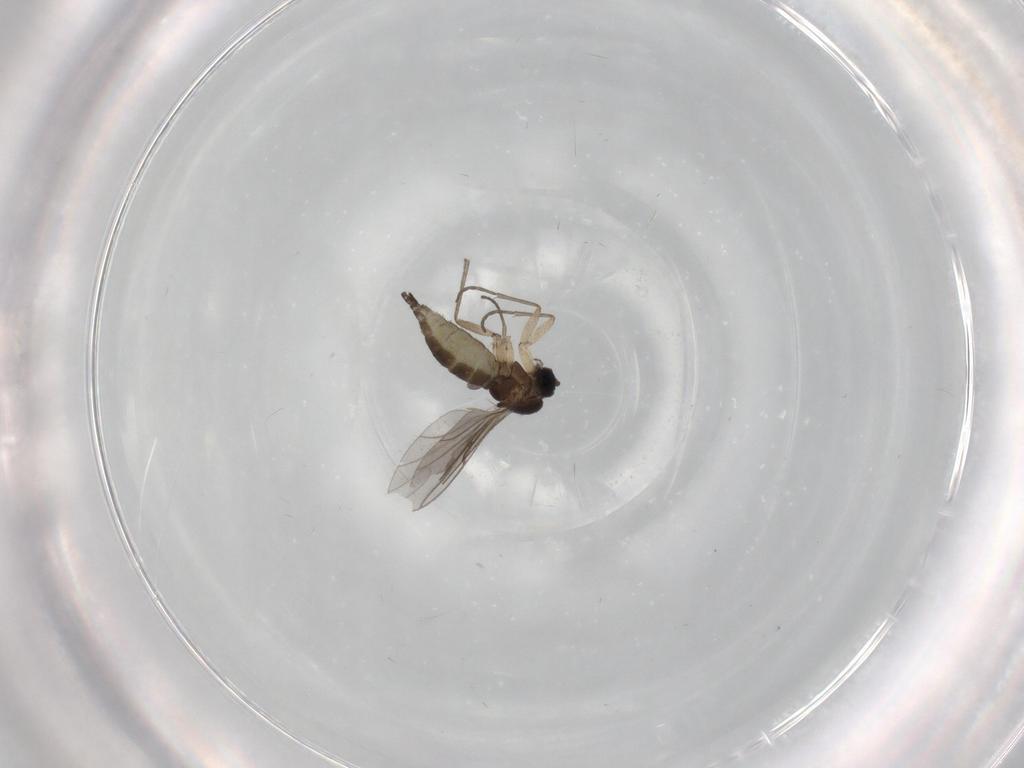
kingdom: Animalia
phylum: Arthropoda
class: Insecta
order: Diptera
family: Sciaridae
